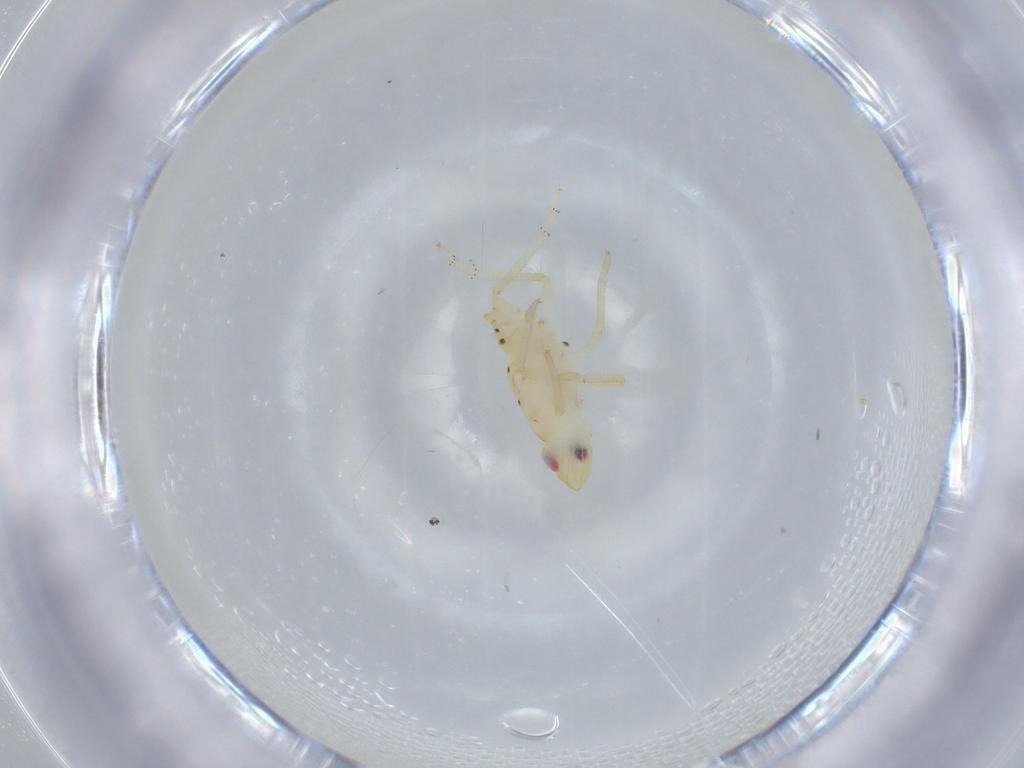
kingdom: Animalia
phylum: Arthropoda
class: Insecta
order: Hemiptera
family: Tropiduchidae
